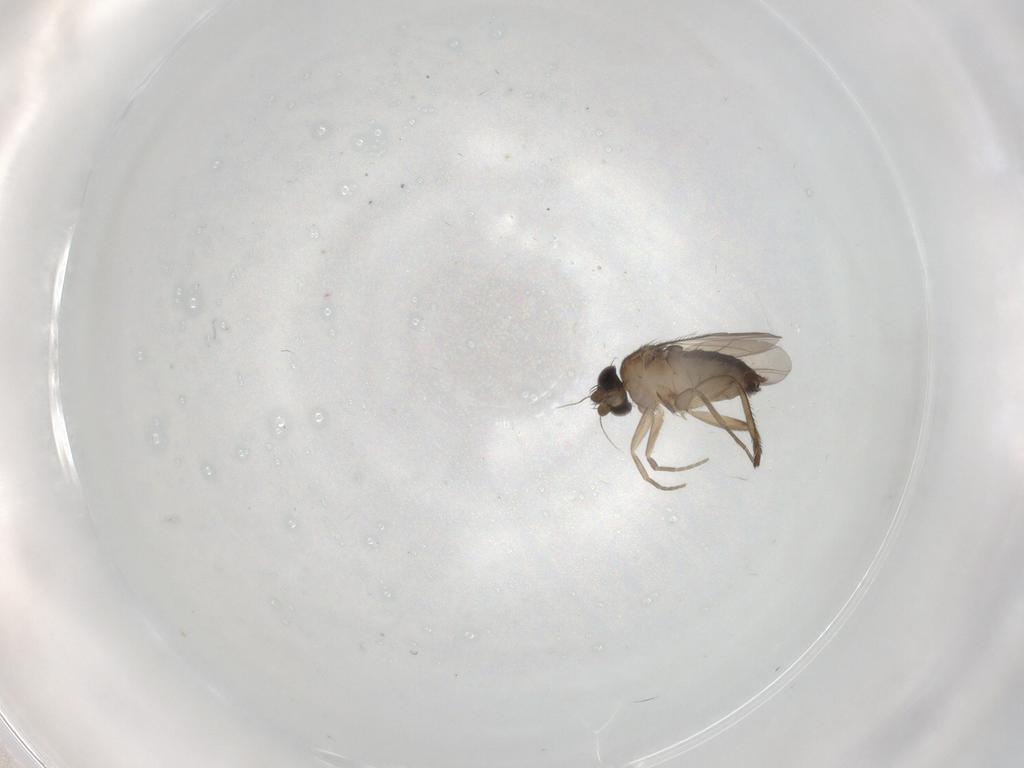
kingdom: Animalia
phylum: Arthropoda
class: Insecta
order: Diptera
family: Phoridae
